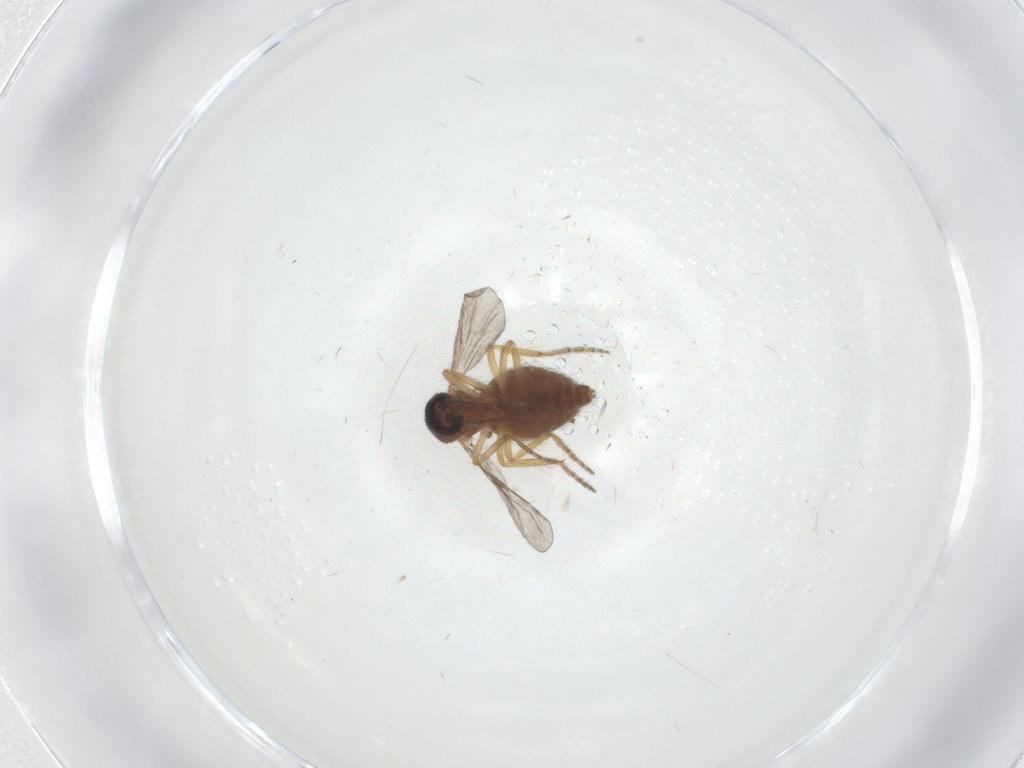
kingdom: Animalia
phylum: Arthropoda
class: Insecta
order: Diptera
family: Ceratopogonidae
